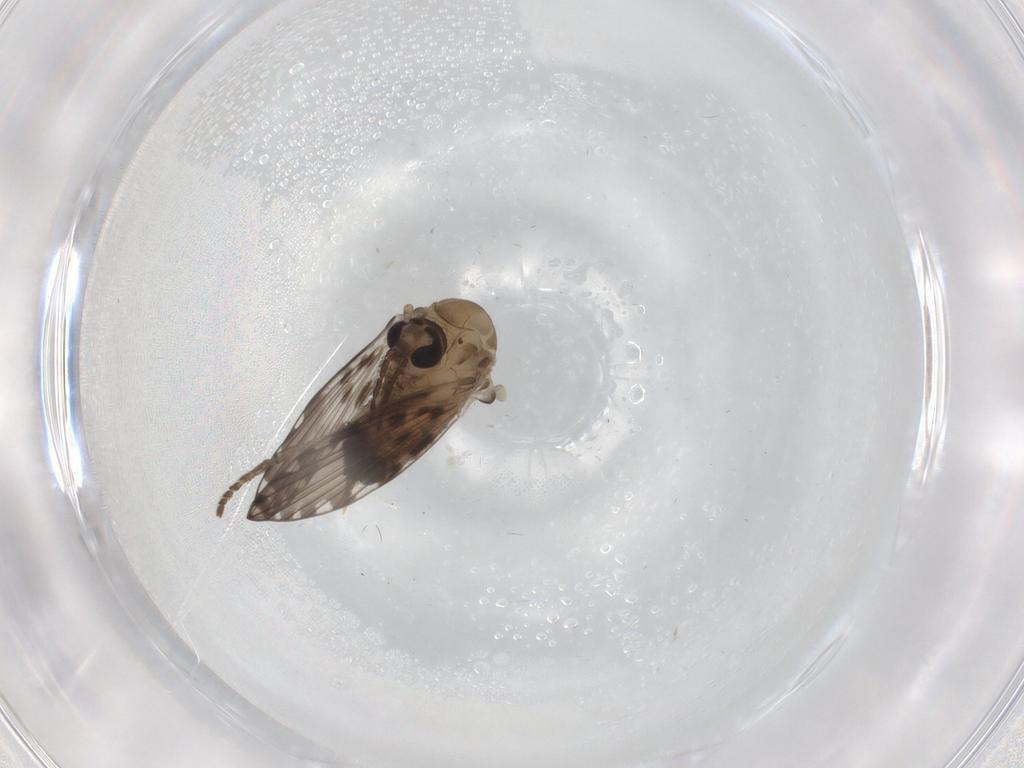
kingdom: Animalia
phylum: Arthropoda
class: Insecta
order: Diptera
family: Psychodidae
